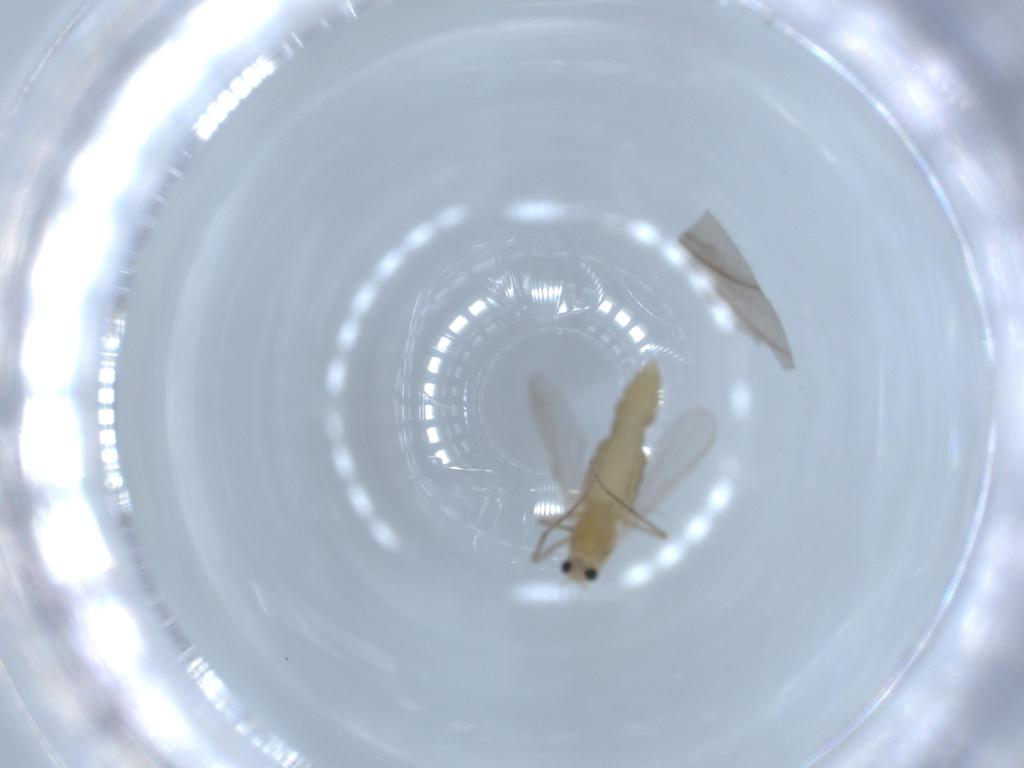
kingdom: Animalia
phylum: Arthropoda
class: Insecta
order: Diptera
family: Chironomidae
